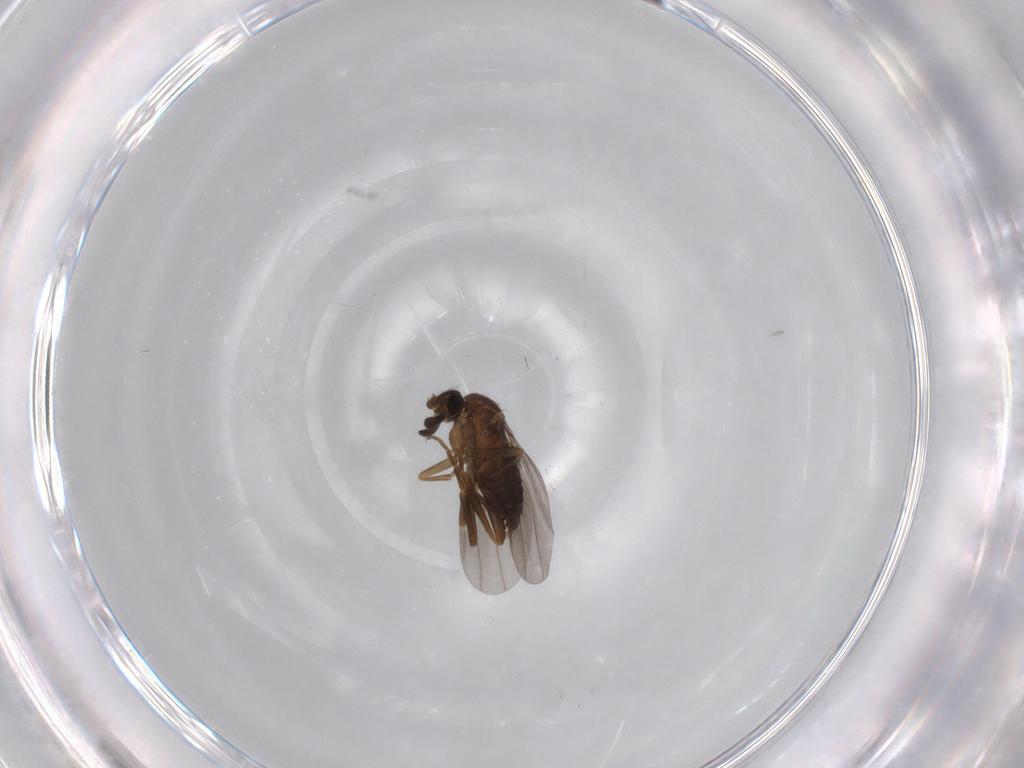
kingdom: Animalia
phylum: Arthropoda
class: Insecta
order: Diptera
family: Phoridae
